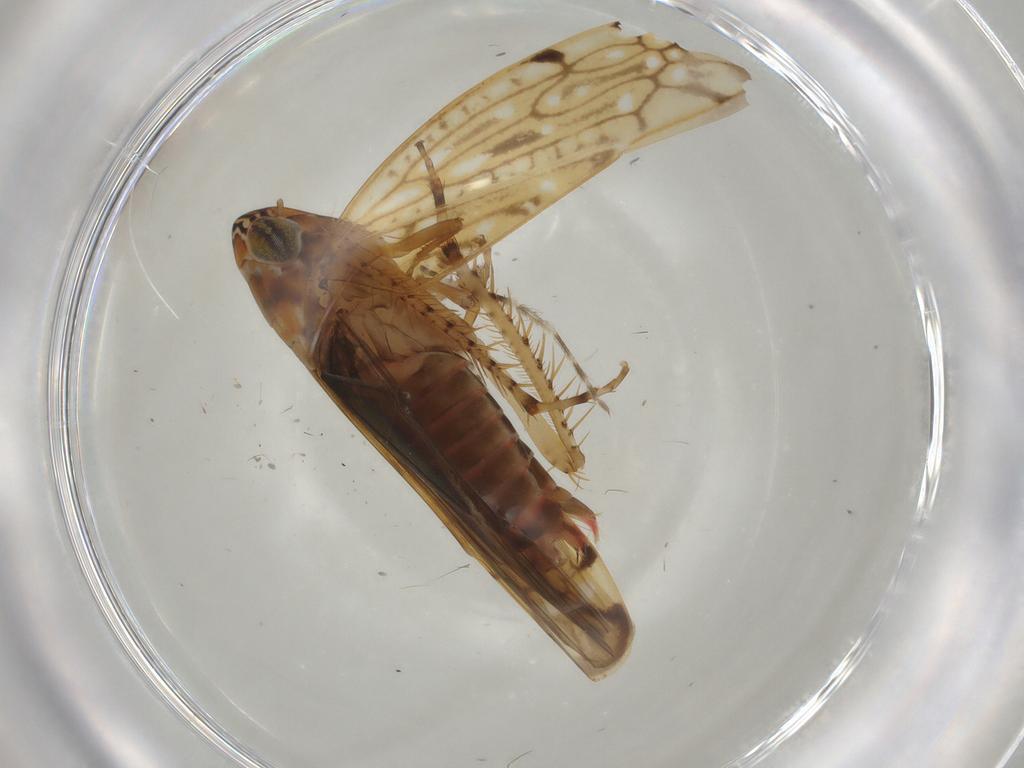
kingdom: Animalia
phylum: Arthropoda
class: Insecta
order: Hemiptera
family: Cicadellidae
